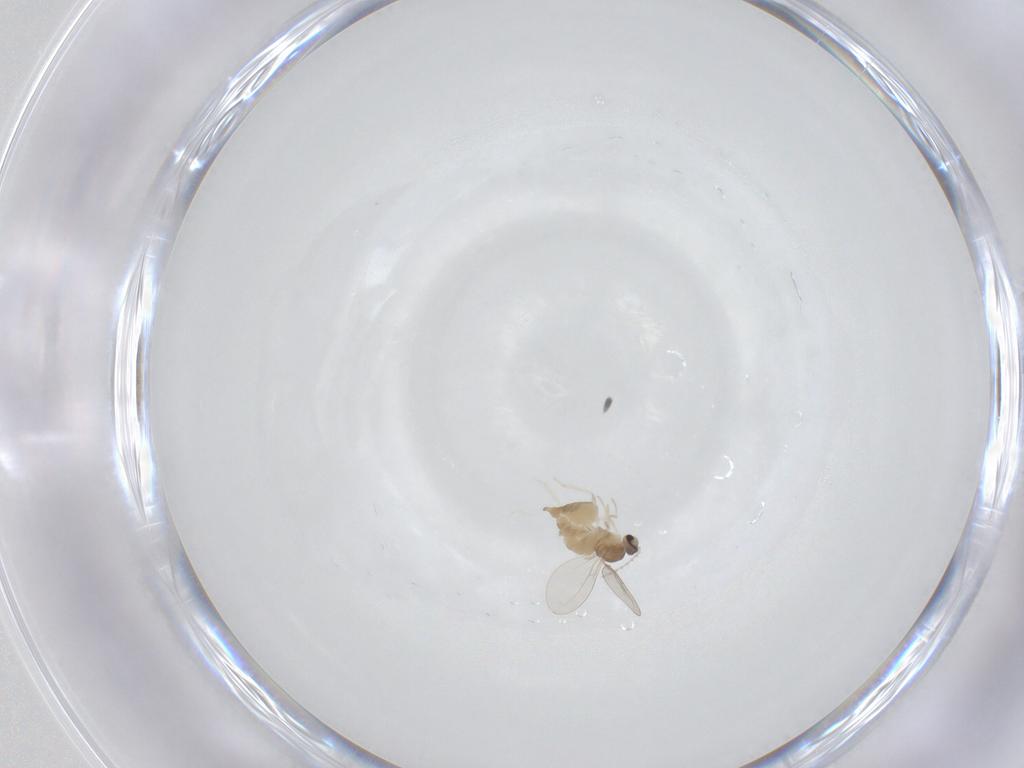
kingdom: Animalia
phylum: Arthropoda
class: Insecta
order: Diptera
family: Cecidomyiidae
